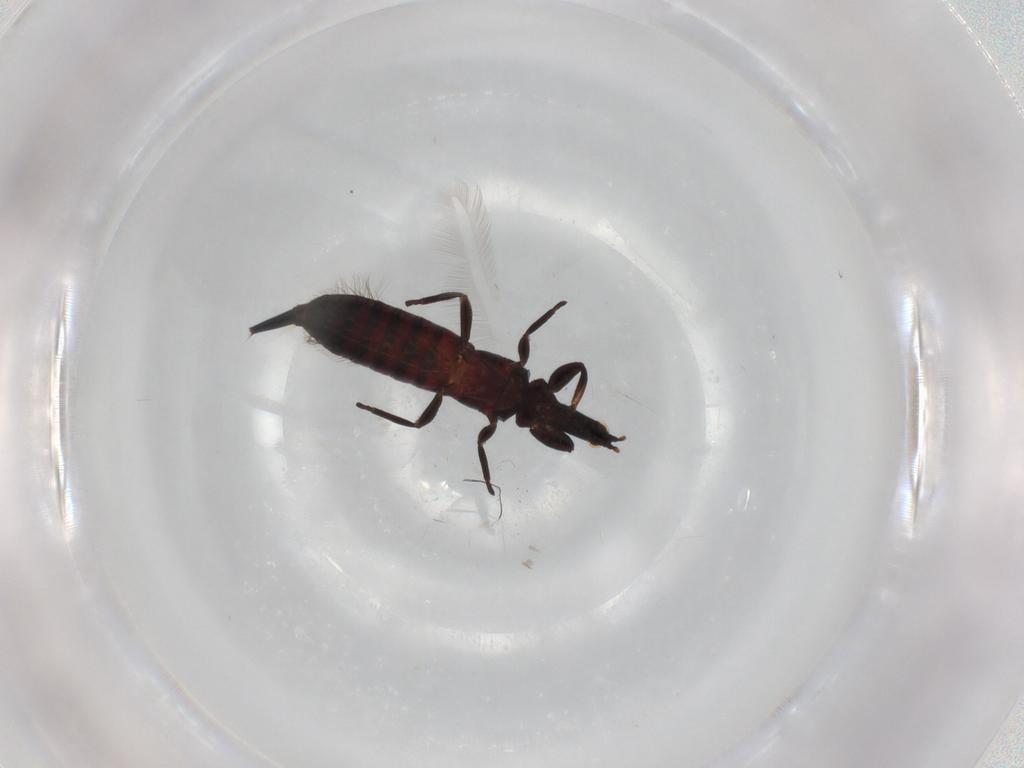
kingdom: Animalia
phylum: Arthropoda
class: Insecta
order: Thysanoptera
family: Phlaeothripidae
